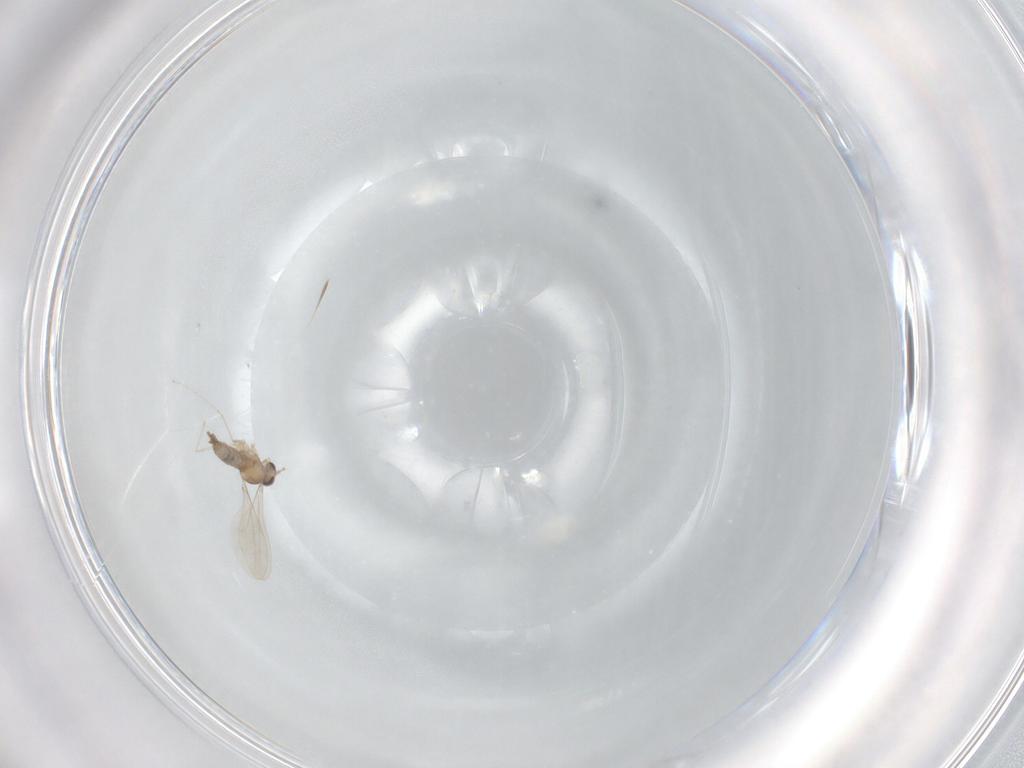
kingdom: Animalia
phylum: Arthropoda
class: Insecta
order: Diptera
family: Cecidomyiidae
